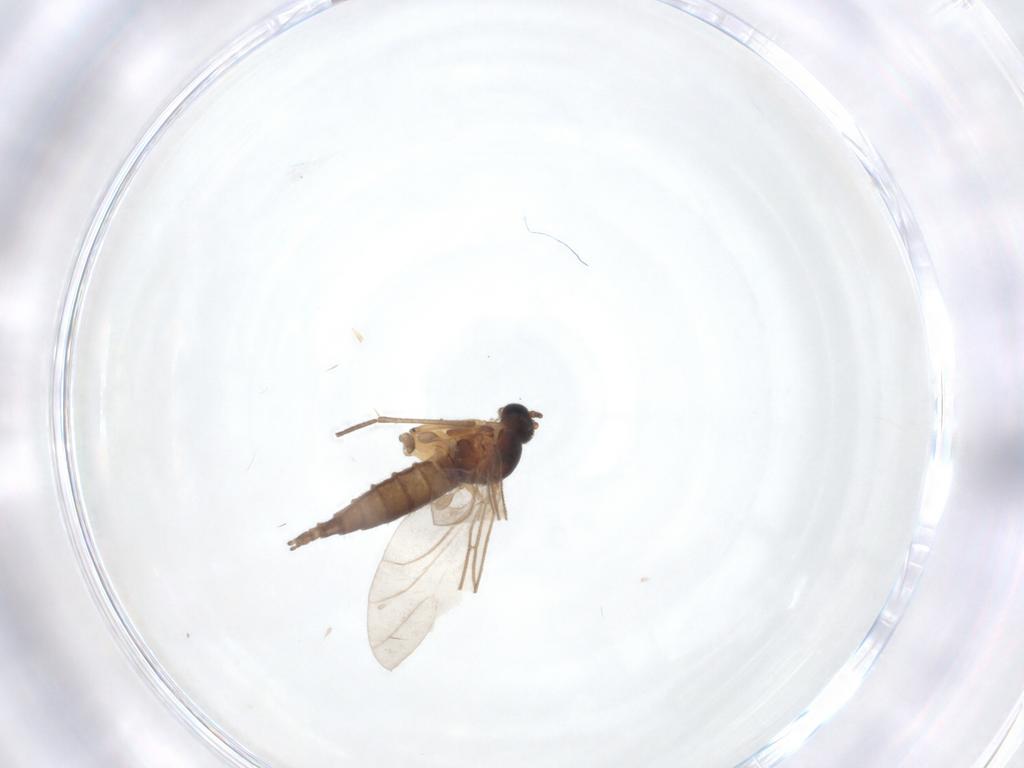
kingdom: Animalia
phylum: Arthropoda
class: Insecta
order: Diptera
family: Sciaridae
